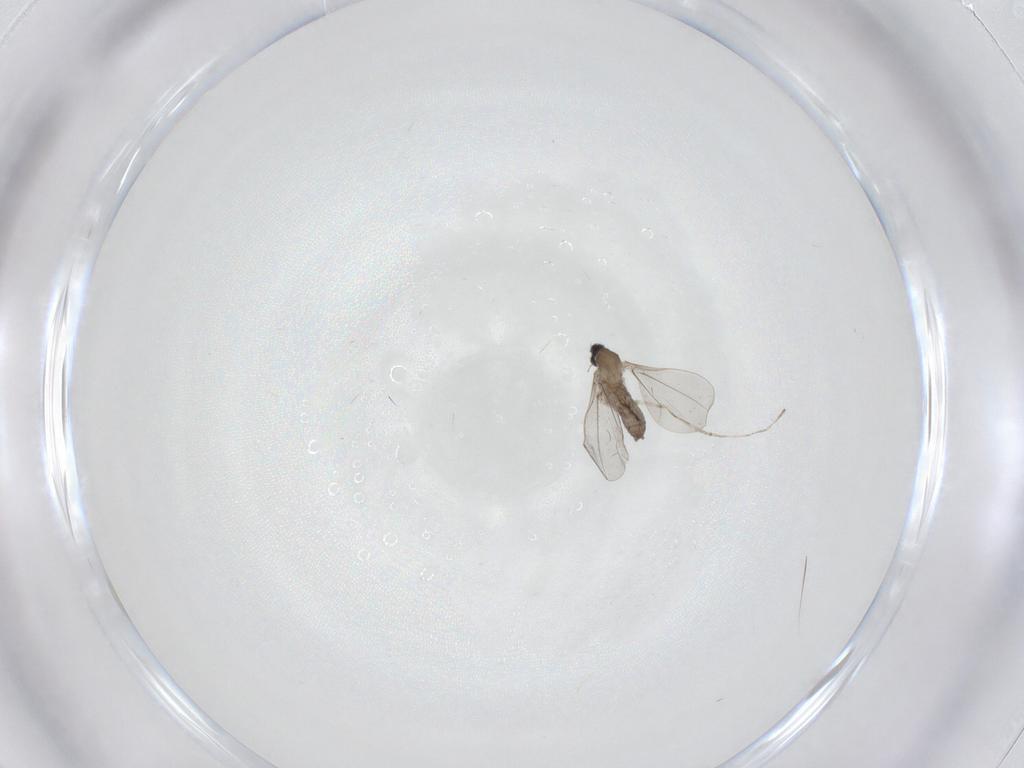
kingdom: Animalia
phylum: Arthropoda
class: Insecta
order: Diptera
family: Cecidomyiidae
